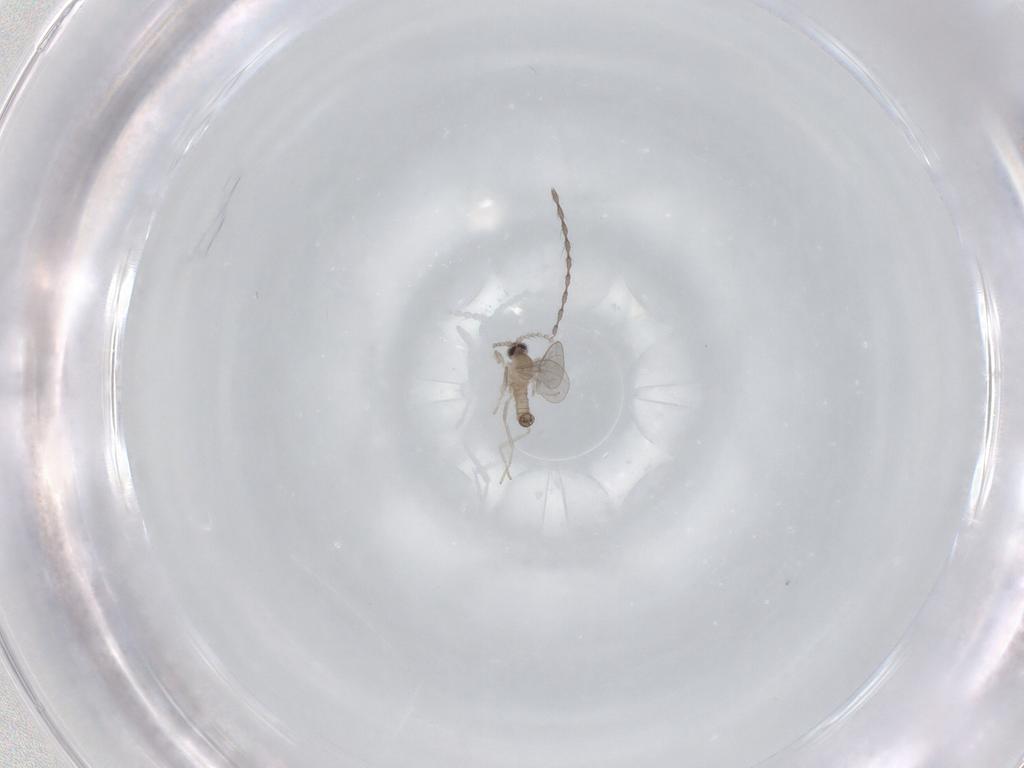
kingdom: Animalia
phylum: Arthropoda
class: Insecta
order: Diptera
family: Cecidomyiidae
